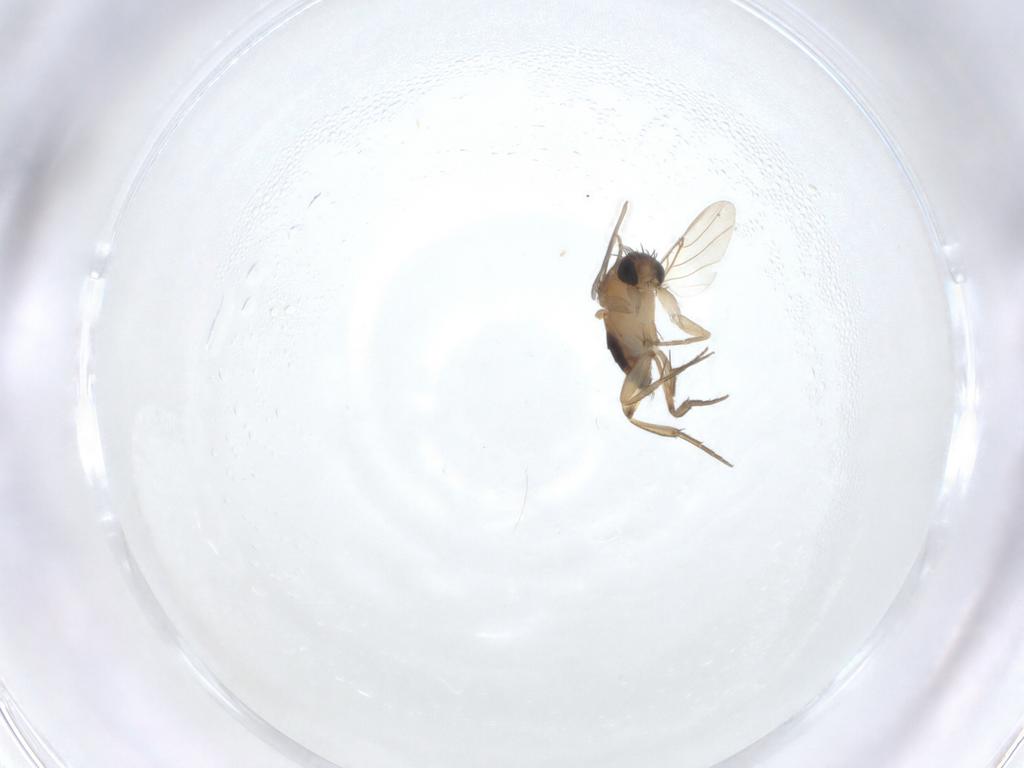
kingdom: Animalia
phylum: Arthropoda
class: Insecta
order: Diptera
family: Phoridae
